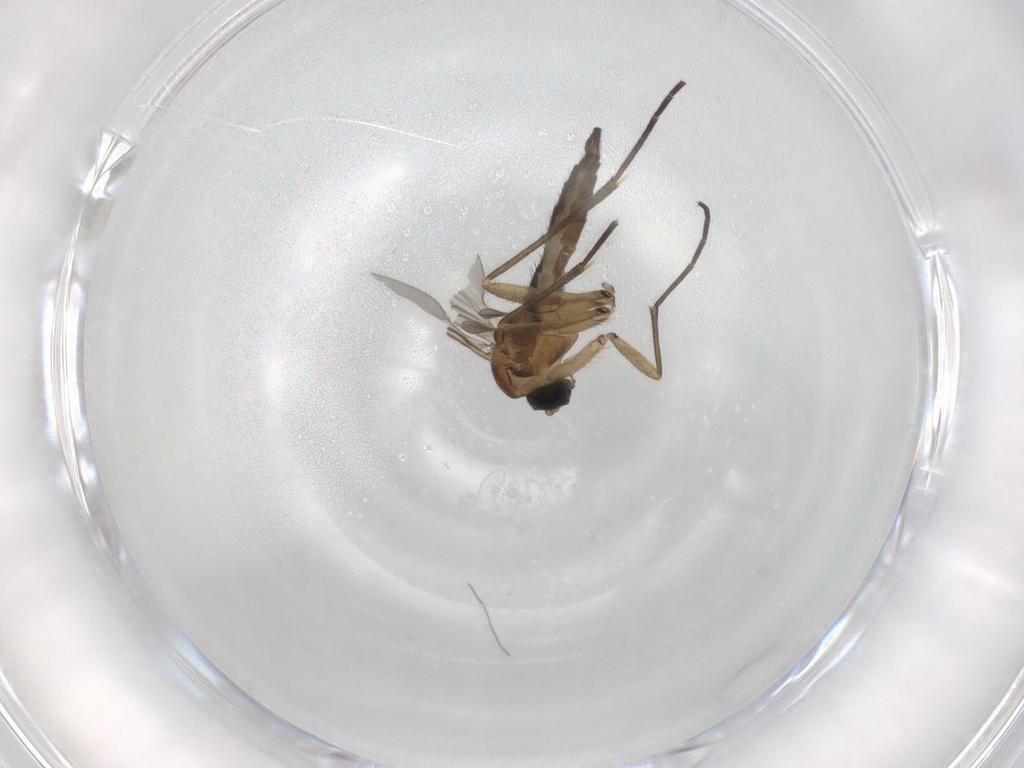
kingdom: Animalia
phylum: Arthropoda
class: Insecta
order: Diptera
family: Sciaridae
